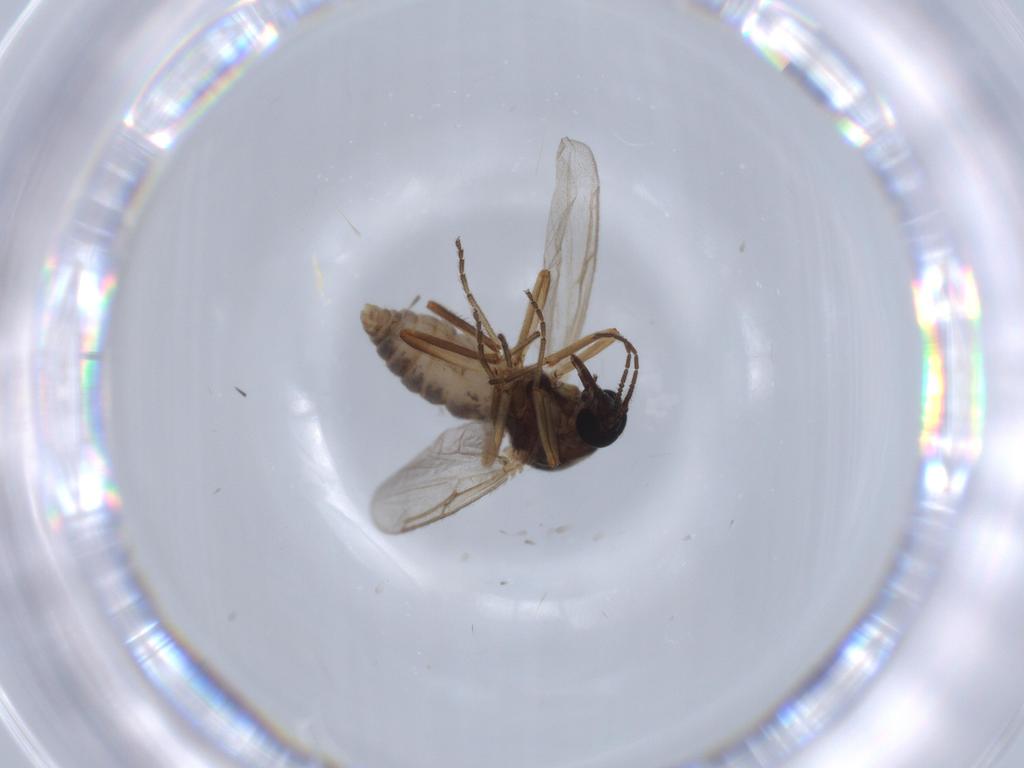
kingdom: Animalia
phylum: Arthropoda
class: Insecta
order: Diptera
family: Ceratopogonidae
